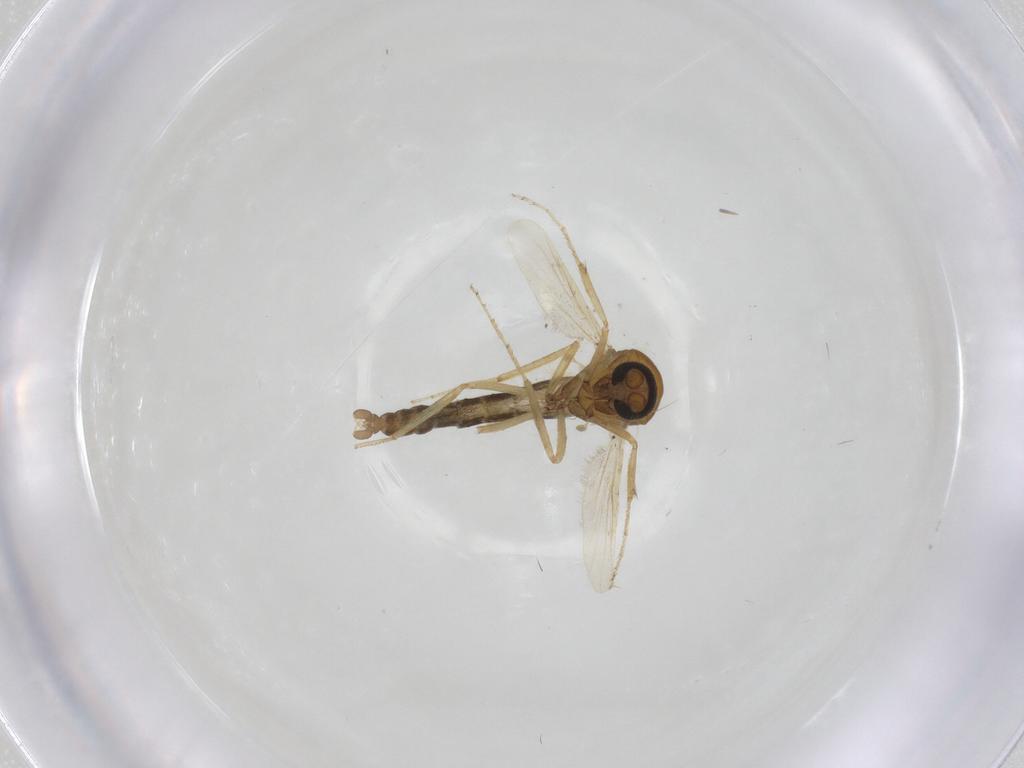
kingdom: Animalia
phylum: Arthropoda
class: Insecta
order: Diptera
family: Ceratopogonidae
